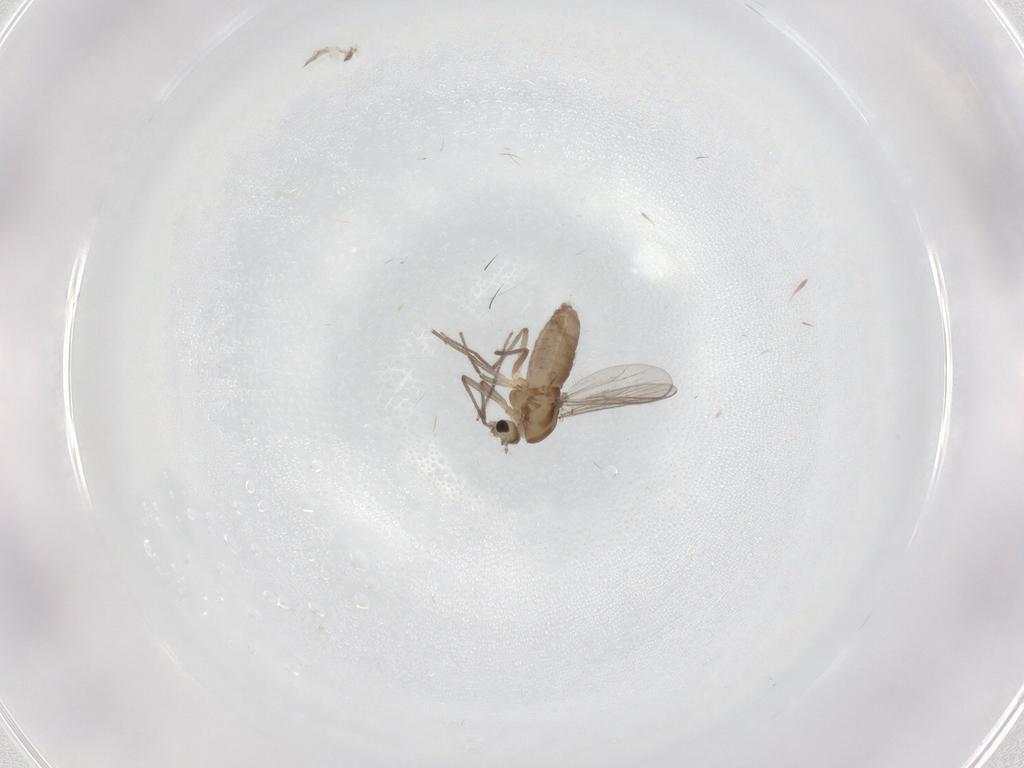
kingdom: Animalia
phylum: Arthropoda
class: Insecta
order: Diptera
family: Chironomidae
